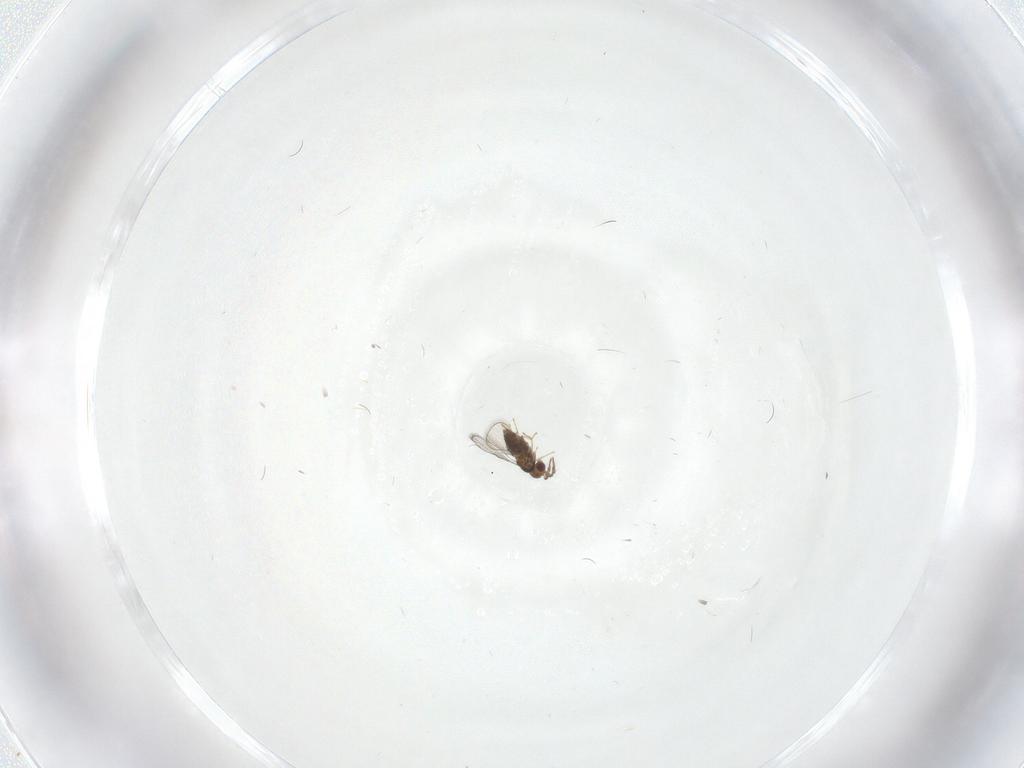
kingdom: Animalia
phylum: Arthropoda
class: Insecta
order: Hymenoptera
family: Trichogrammatidae
